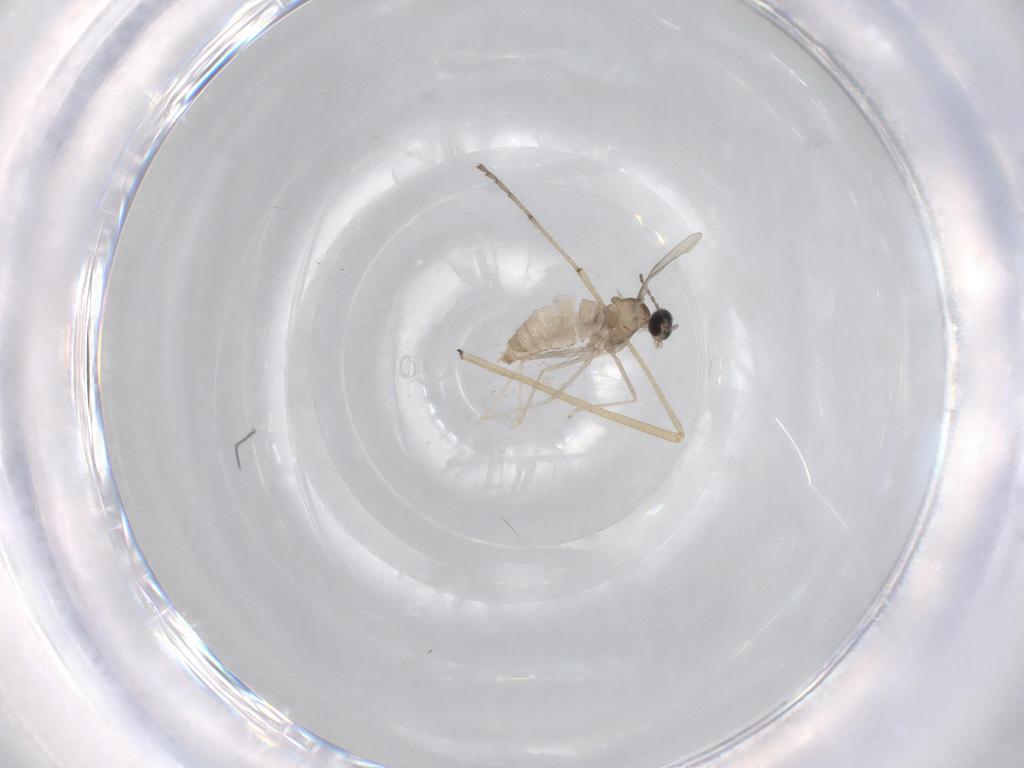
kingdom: Animalia
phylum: Arthropoda
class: Insecta
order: Diptera
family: Cecidomyiidae
